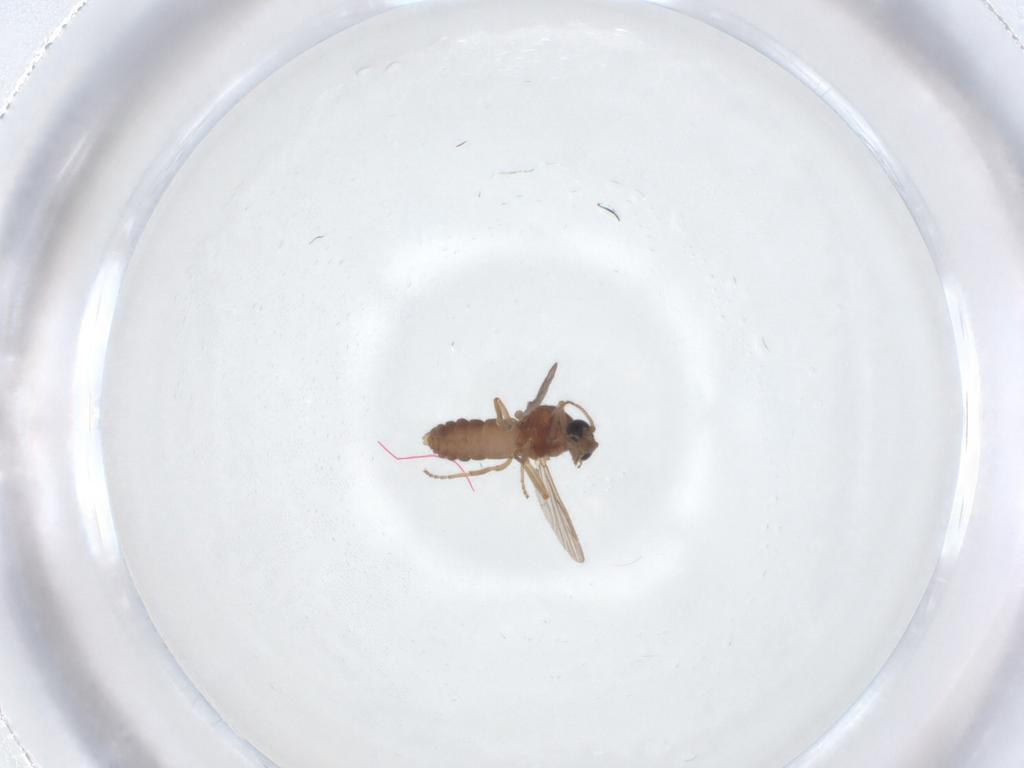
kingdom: Animalia
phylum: Arthropoda
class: Insecta
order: Diptera
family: Ceratopogonidae
